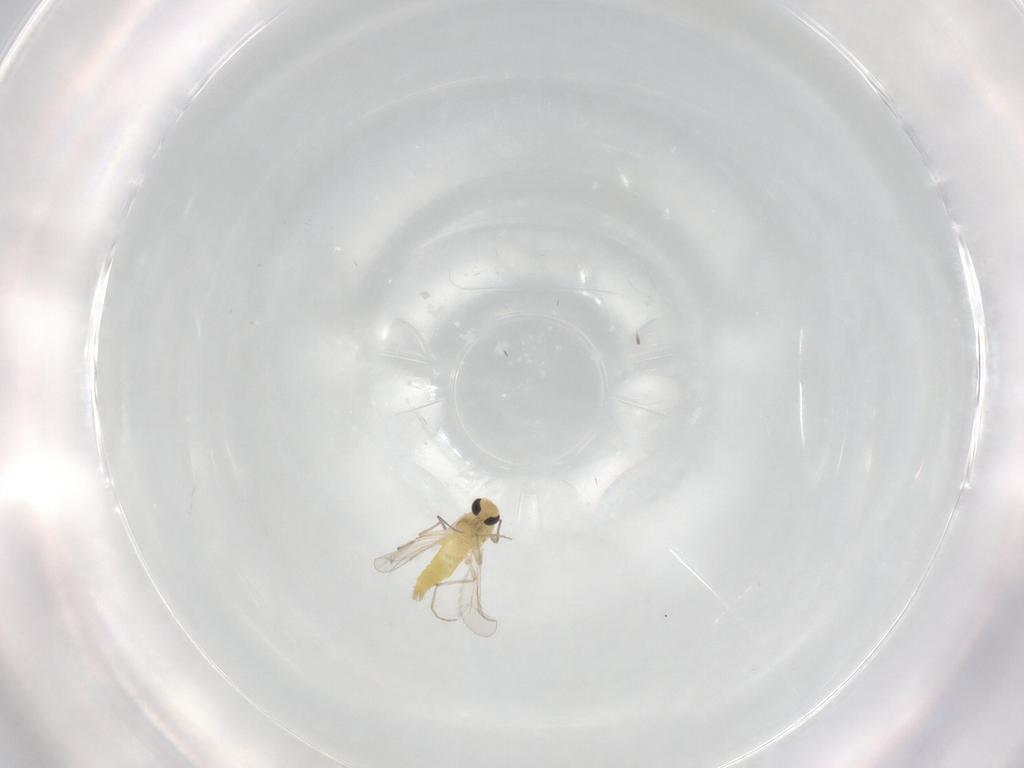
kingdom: Animalia
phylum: Arthropoda
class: Insecta
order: Diptera
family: Chironomidae
